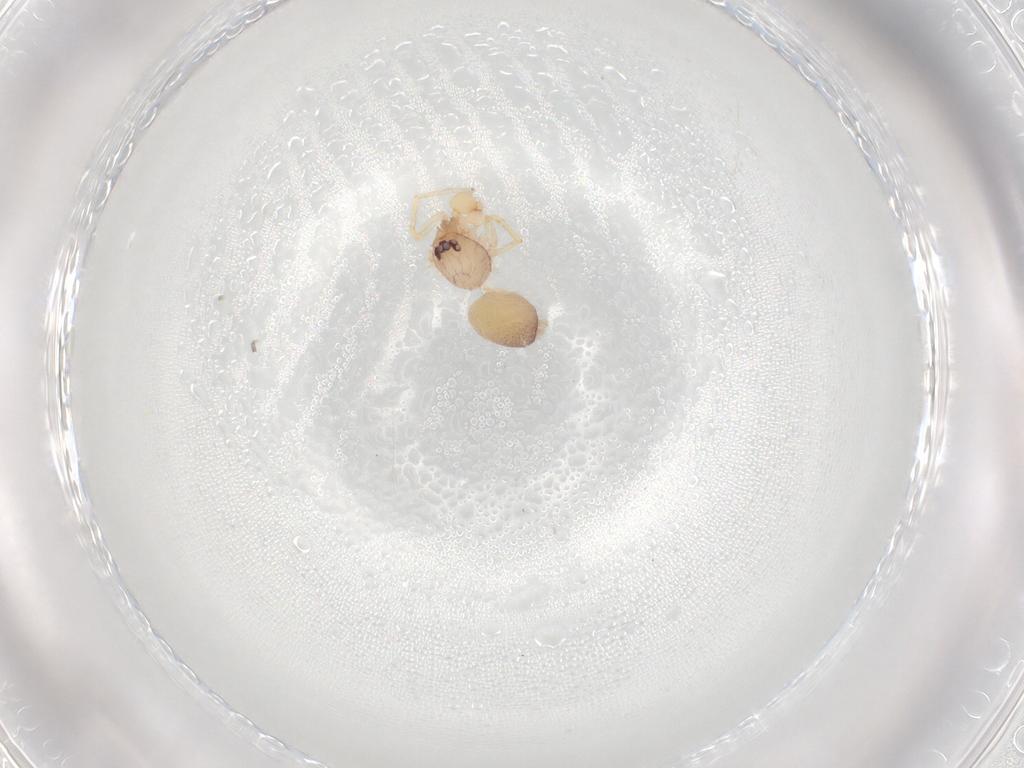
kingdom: Animalia
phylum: Arthropoda
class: Arachnida
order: Araneae
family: Idiopidae
